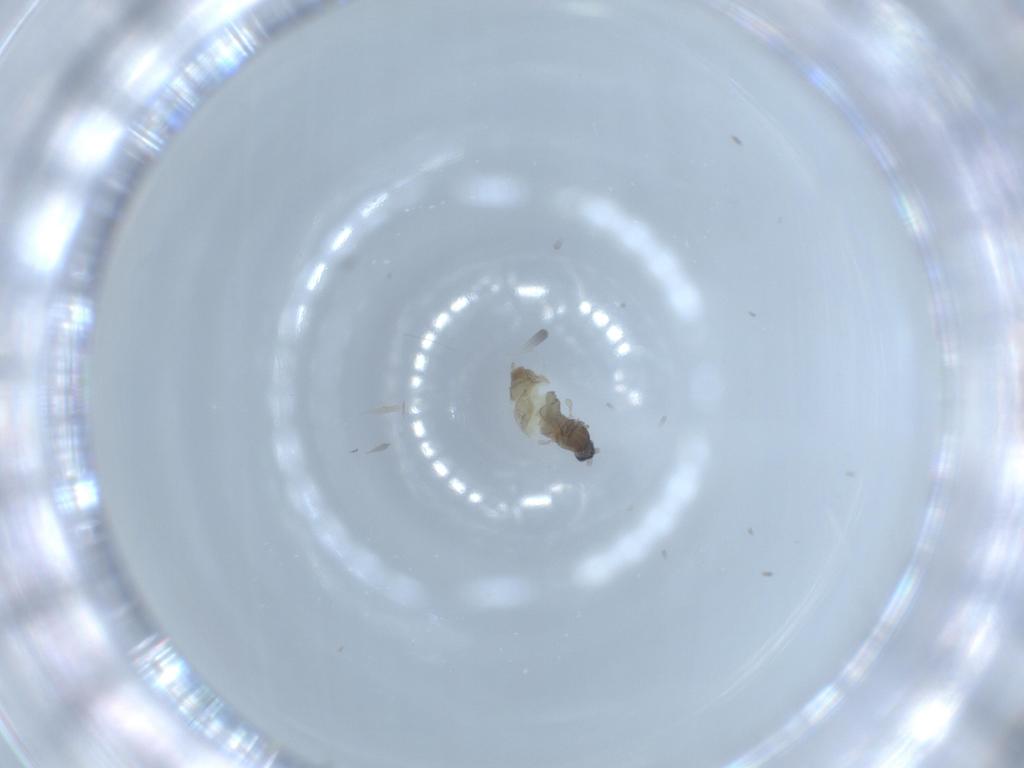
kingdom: Animalia
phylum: Arthropoda
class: Insecta
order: Diptera
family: Cecidomyiidae
